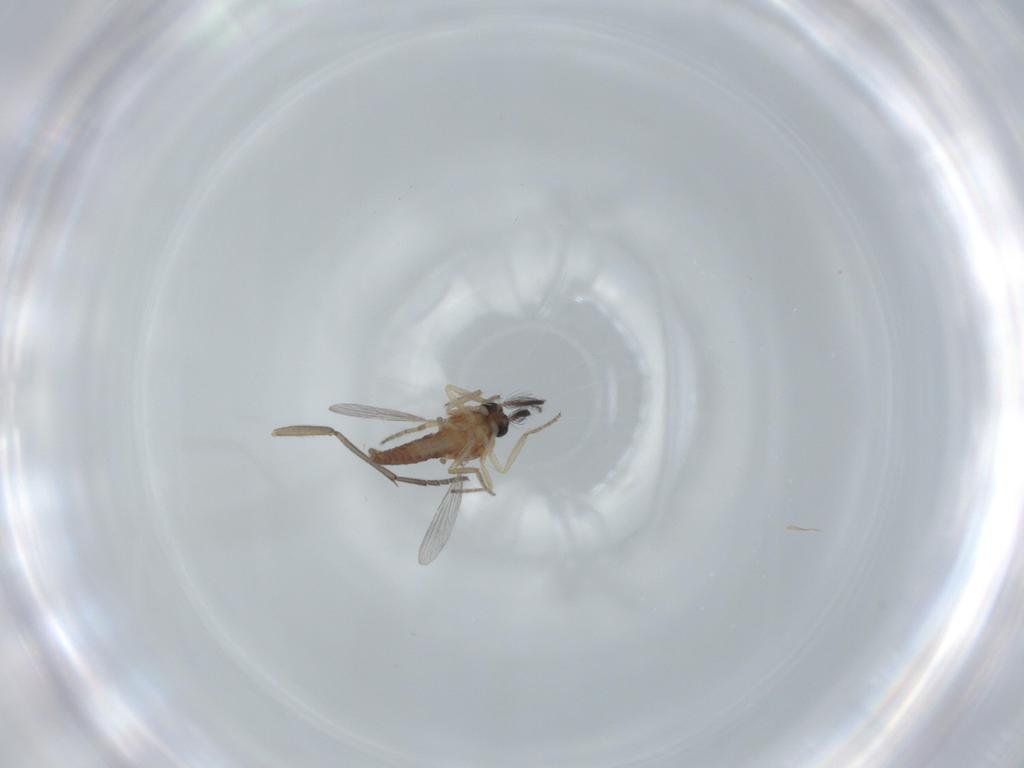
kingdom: Animalia
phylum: Arthropoda
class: Insecta
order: Diptera
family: Ceratopogonidae
